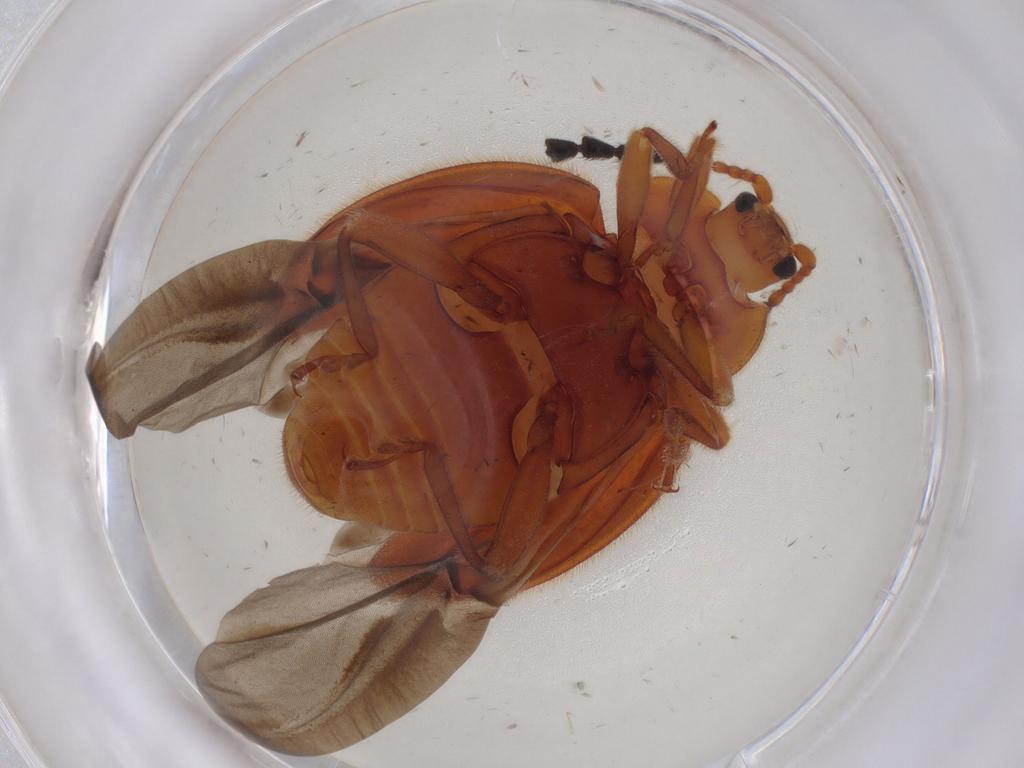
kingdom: Animalia
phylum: Arthropoda
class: Insecta
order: Coleoptera
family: Endomychidae
